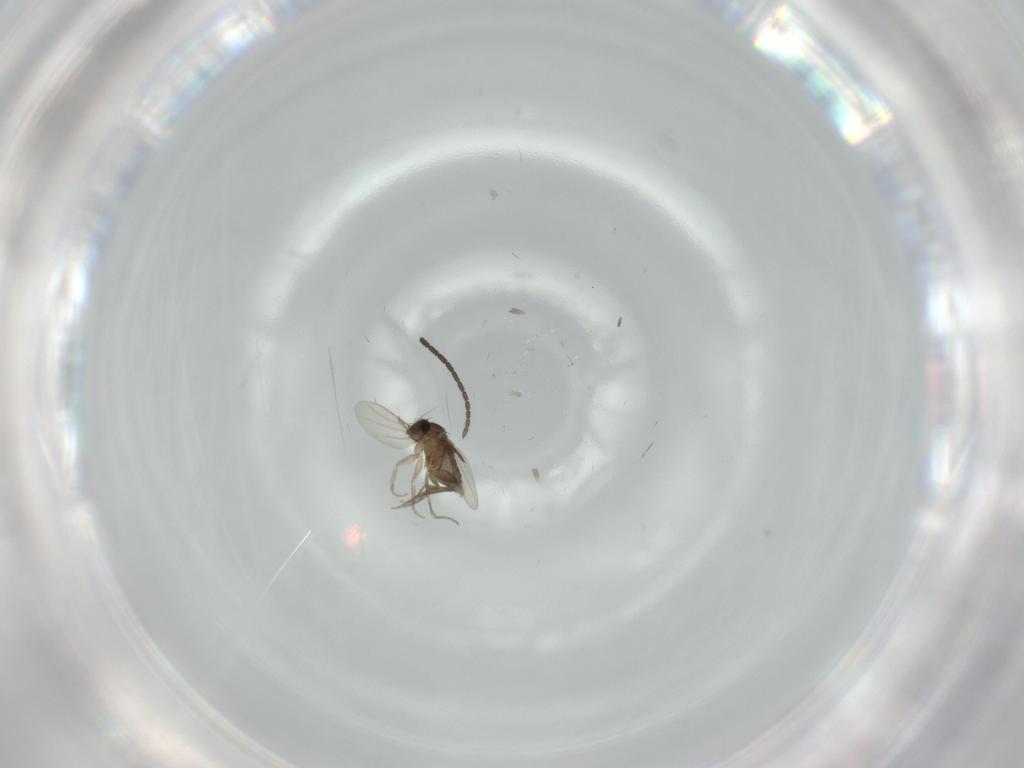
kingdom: Animalia
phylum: Arthropoda
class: Insecta
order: Diptera
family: Phoridae
